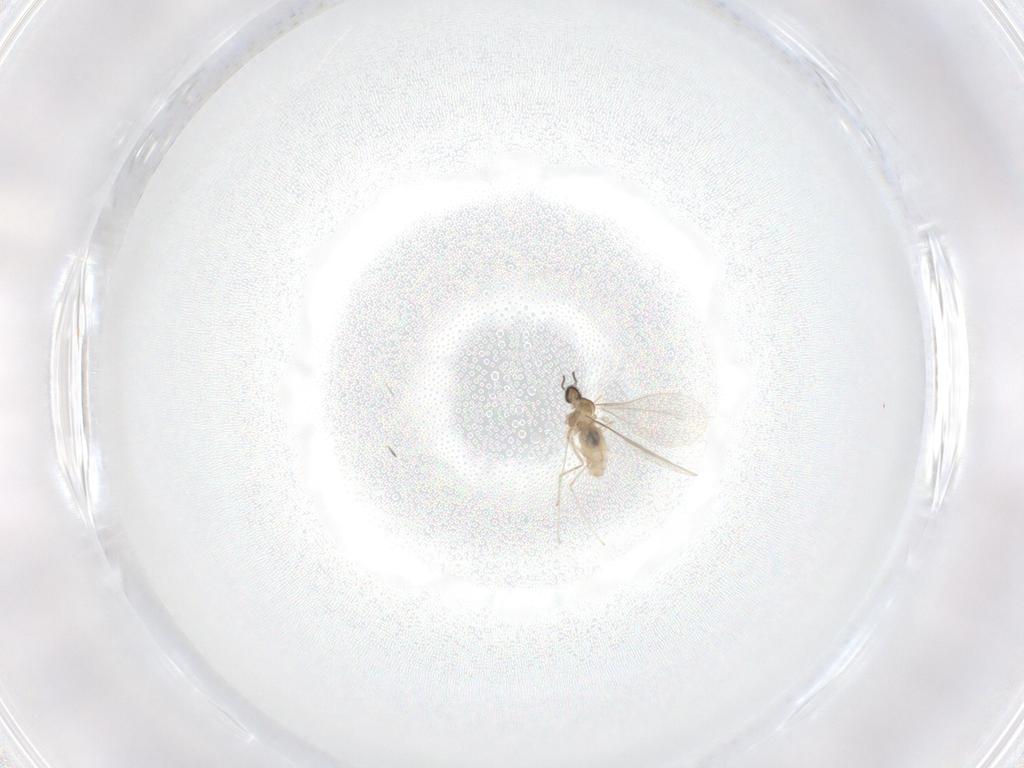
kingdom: Animalia
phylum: Arthropoda
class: Insecta
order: Diptera
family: Cecidomyiidae
